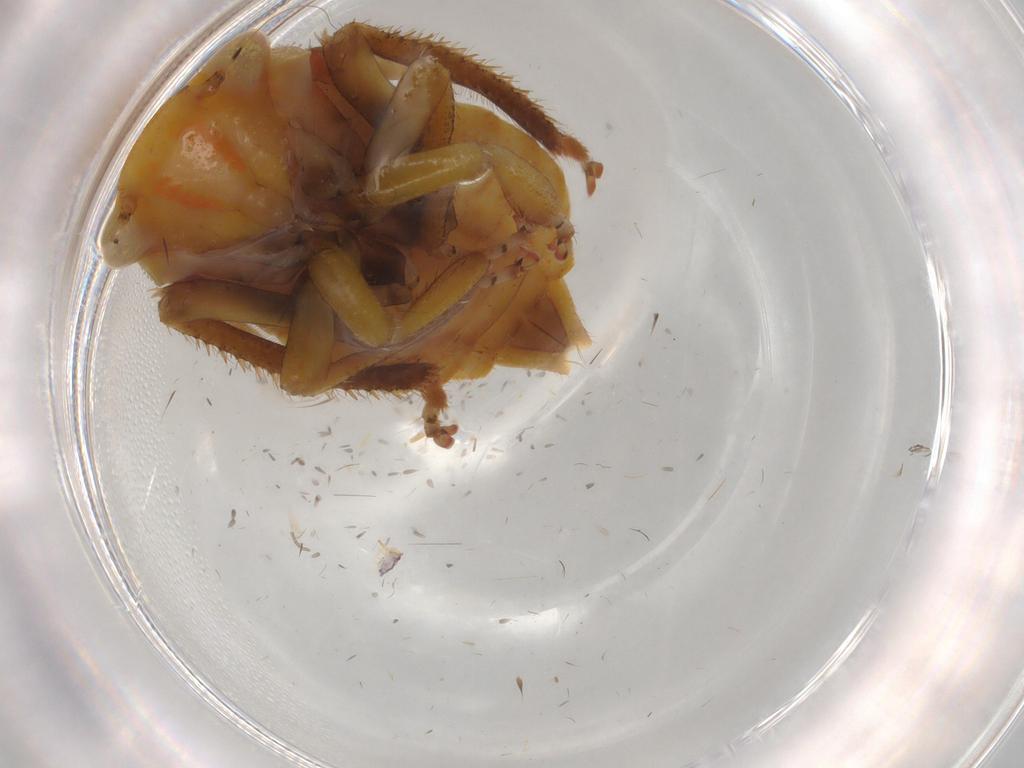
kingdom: Animalia
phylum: Arthropoda
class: Insecta
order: Hemiptera
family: Cicadellidae
